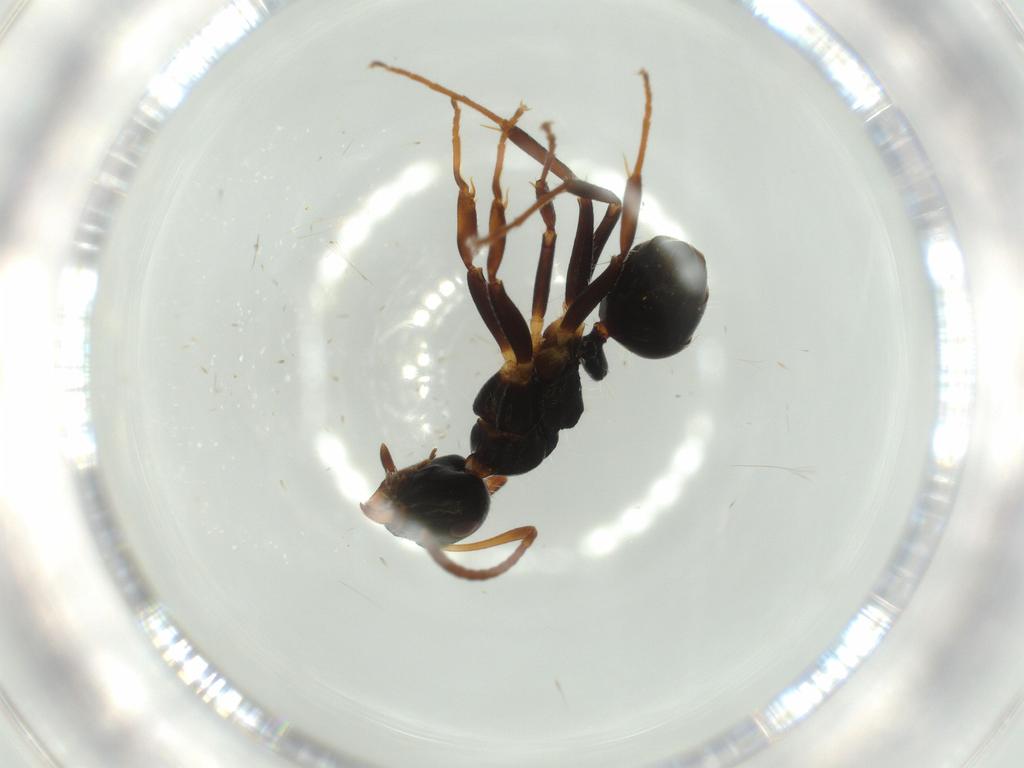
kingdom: Animalia
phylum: Arthropoda
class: Insecta
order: Hymenoptera
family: Formicidae
